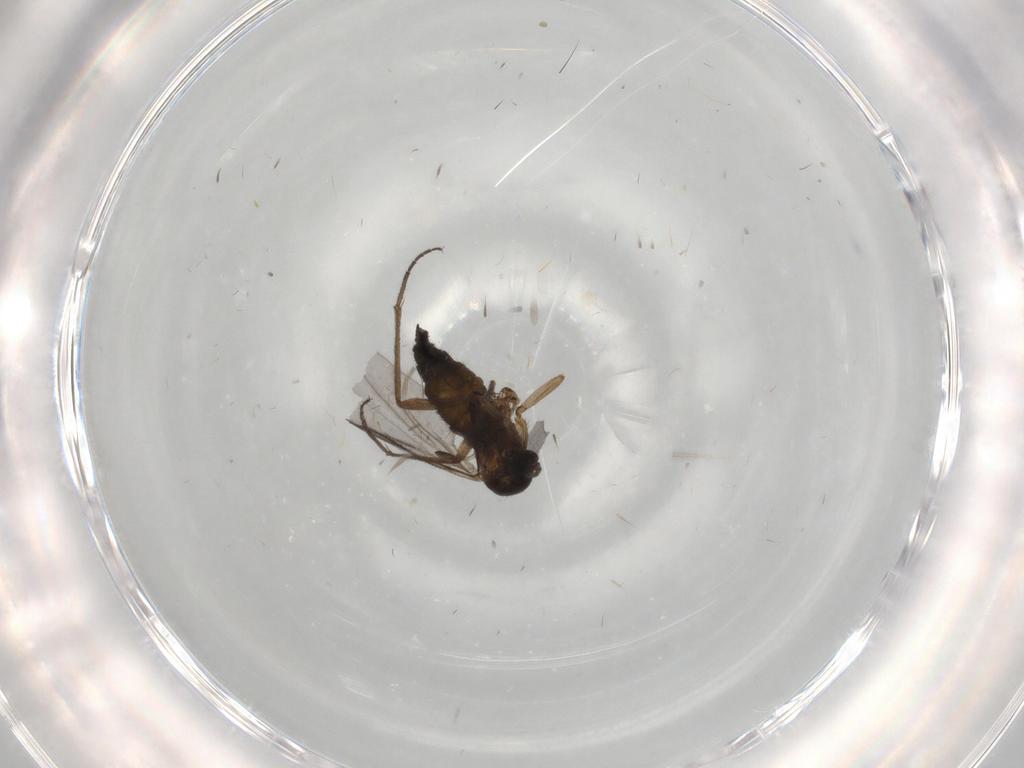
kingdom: Animalia
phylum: Arthropoda
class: Insecta
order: Diptera
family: Sciaridae
